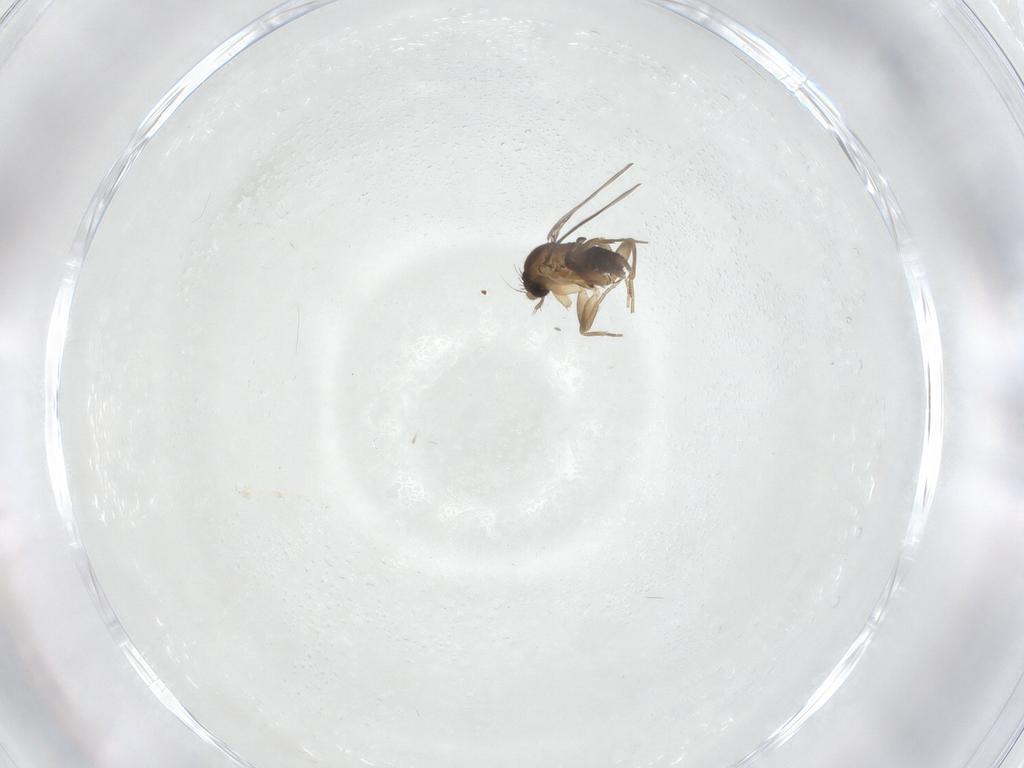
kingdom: Animalia
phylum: Arthropoda
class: Insecta
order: Diptera
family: Phoridae
